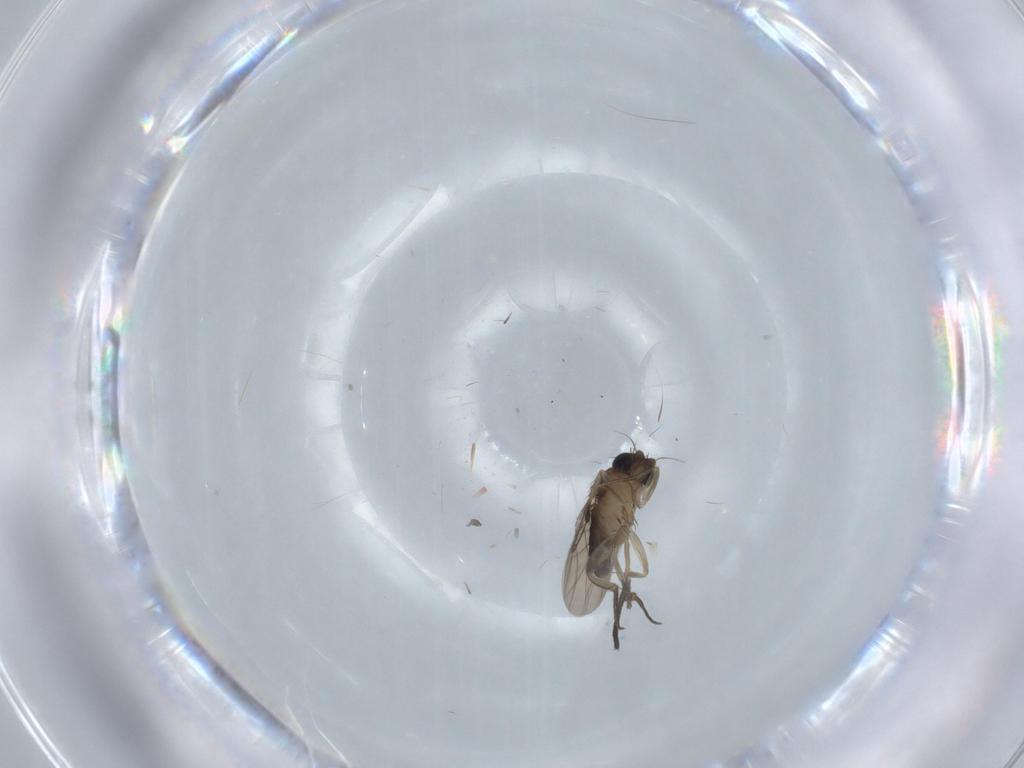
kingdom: Animalia
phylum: Arthropoda
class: Insecta
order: Diptera
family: Phoridae
